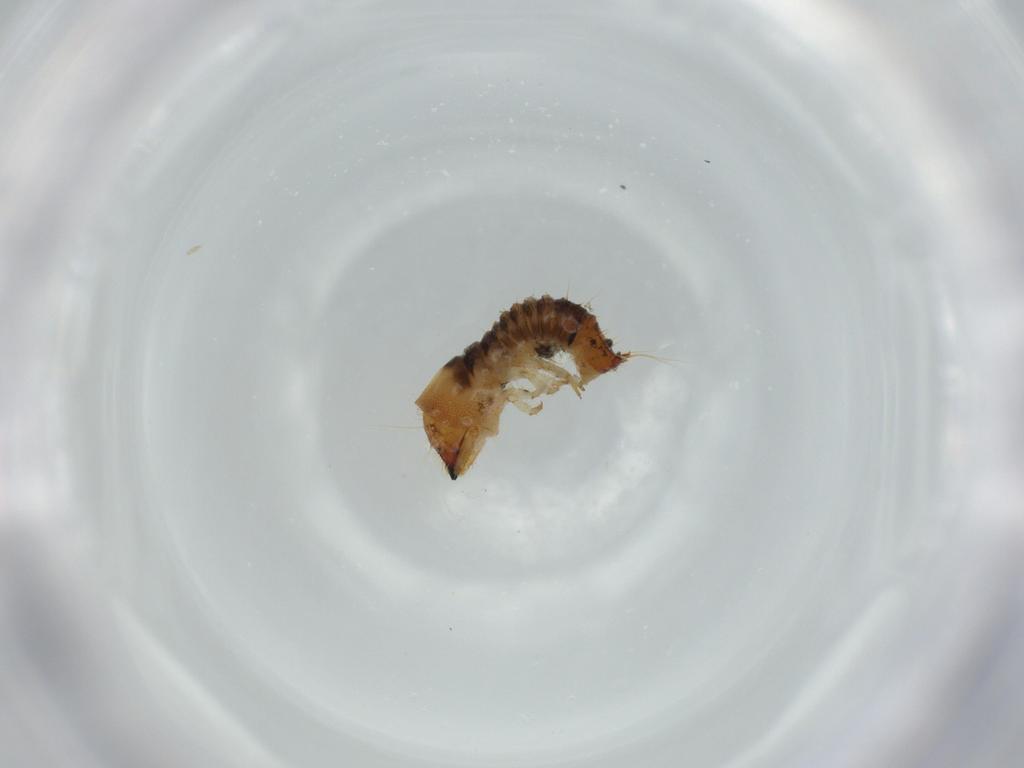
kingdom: Animalia
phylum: Arthropoda
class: Insecta
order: Coleoptera
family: Lymexylidae
